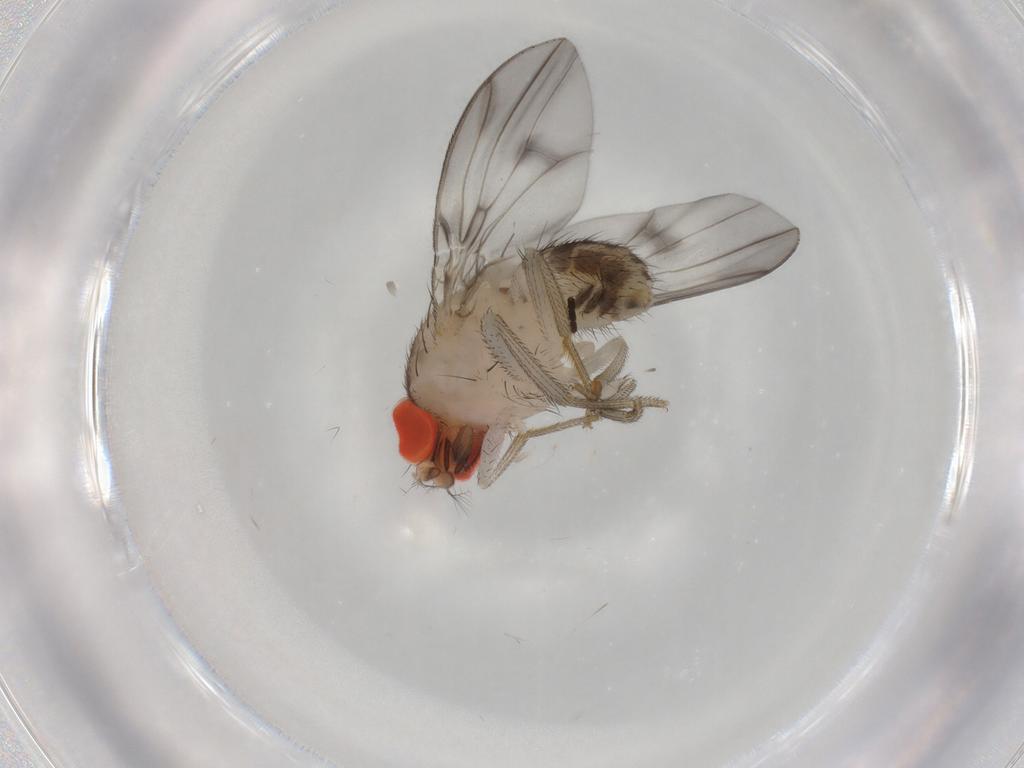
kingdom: Animalia
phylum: Arthropoda
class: Insecta
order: Diptera
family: Drosophilidae
